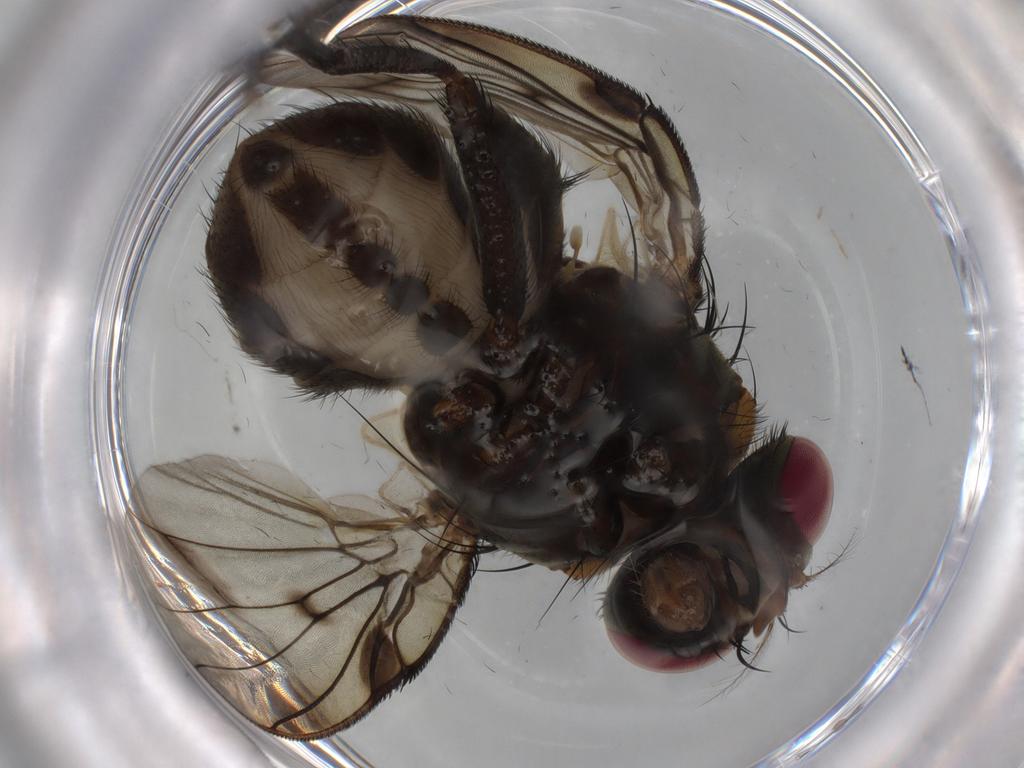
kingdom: Animalia
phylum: Arthropoda
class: Insecta
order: Diptera
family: Muscidae
